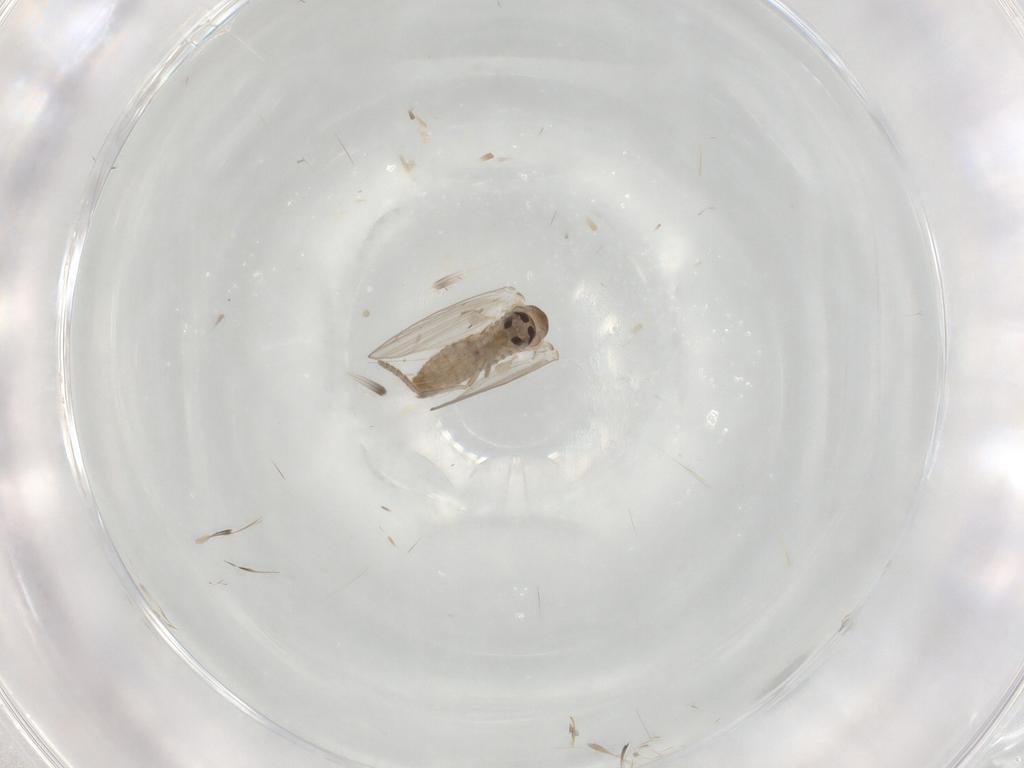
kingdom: Animalia
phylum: Arthropoda
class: Insecta
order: Diptera
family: Psychodidae
